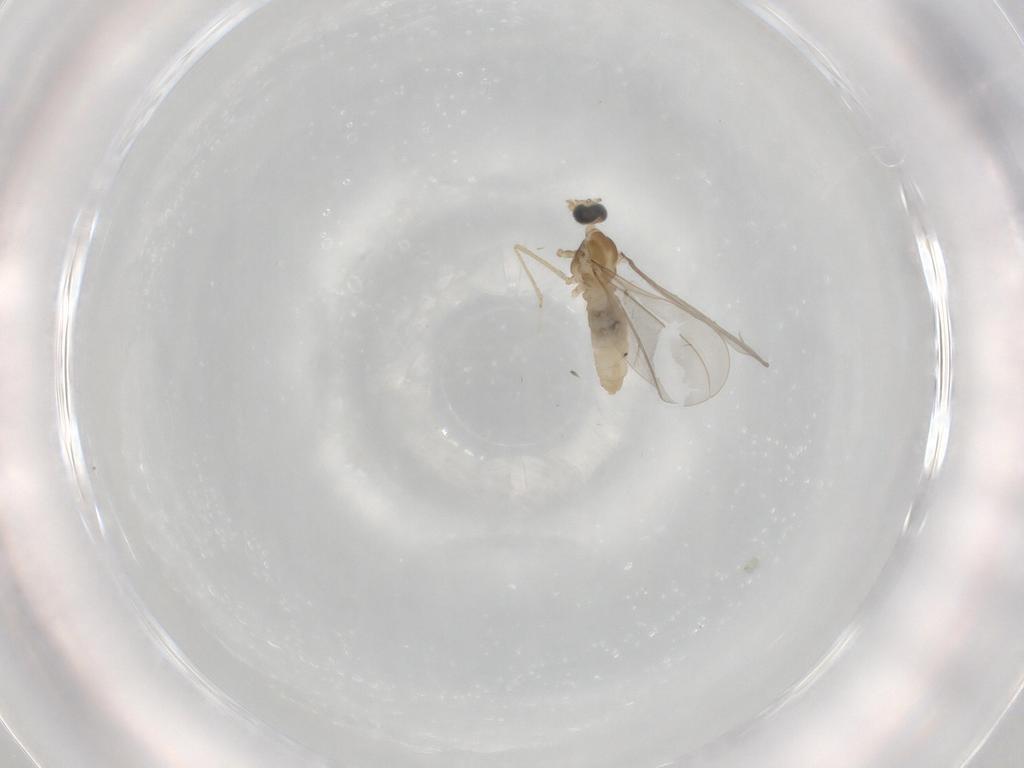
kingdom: Animalia
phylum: Arthropoda
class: Insecta
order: Diptera
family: Cecidomyiidae
